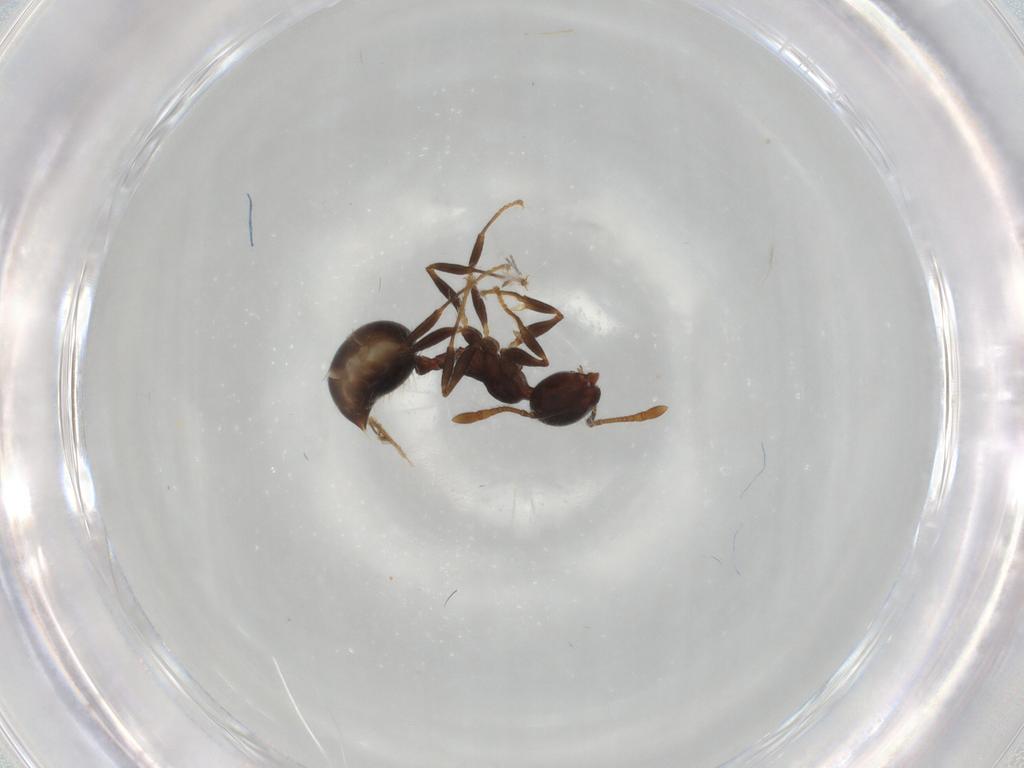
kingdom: Animalia
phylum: Arthropoda
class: Insecta
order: Hymenoptera
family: Formicidae
